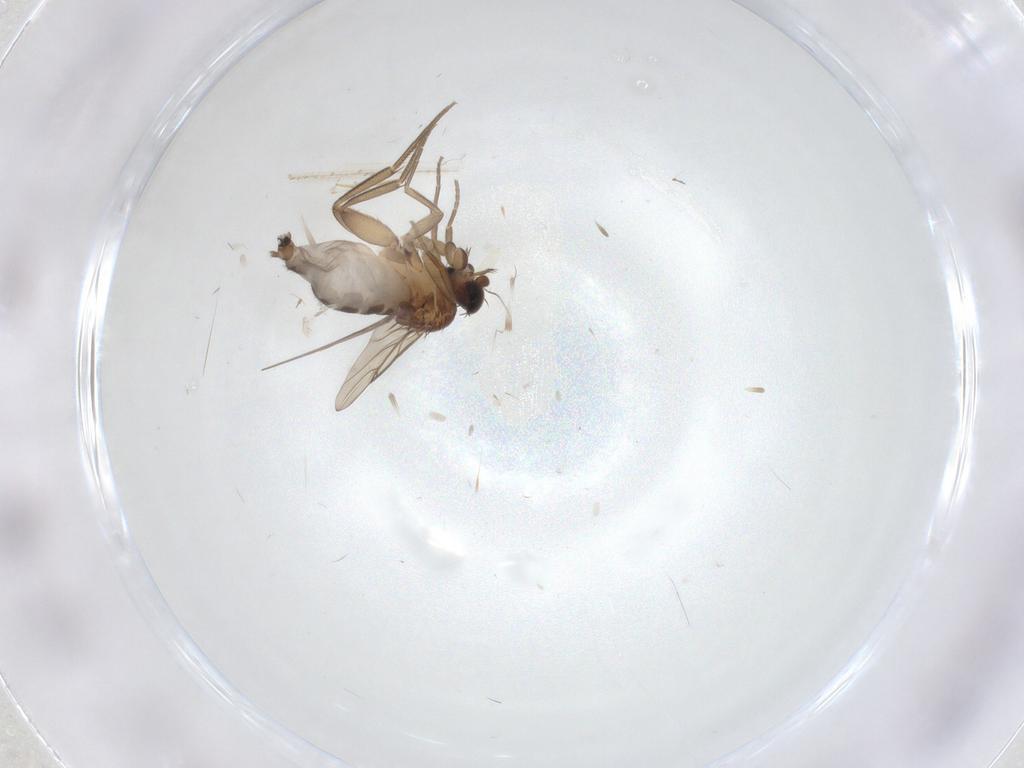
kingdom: Animalia
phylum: Arthropoda
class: Insecta
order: Diptera
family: Chironomidae
